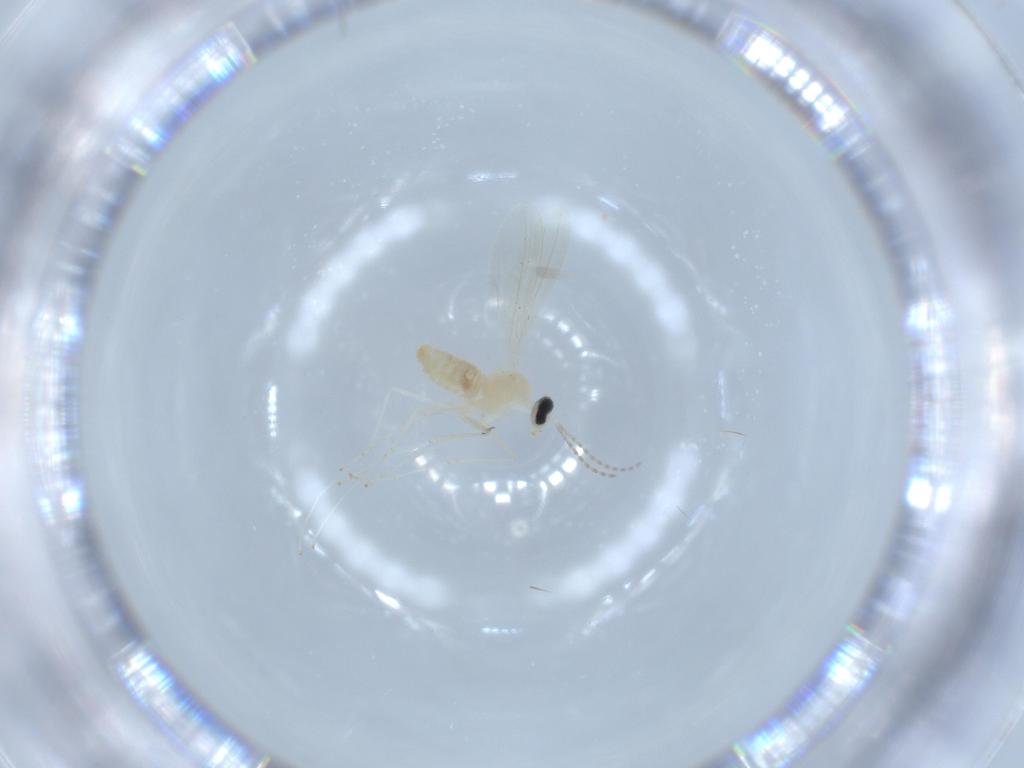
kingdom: Animalia
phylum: Arthropoda
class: Insecta
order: Diptera
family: Cecidomyiidae
